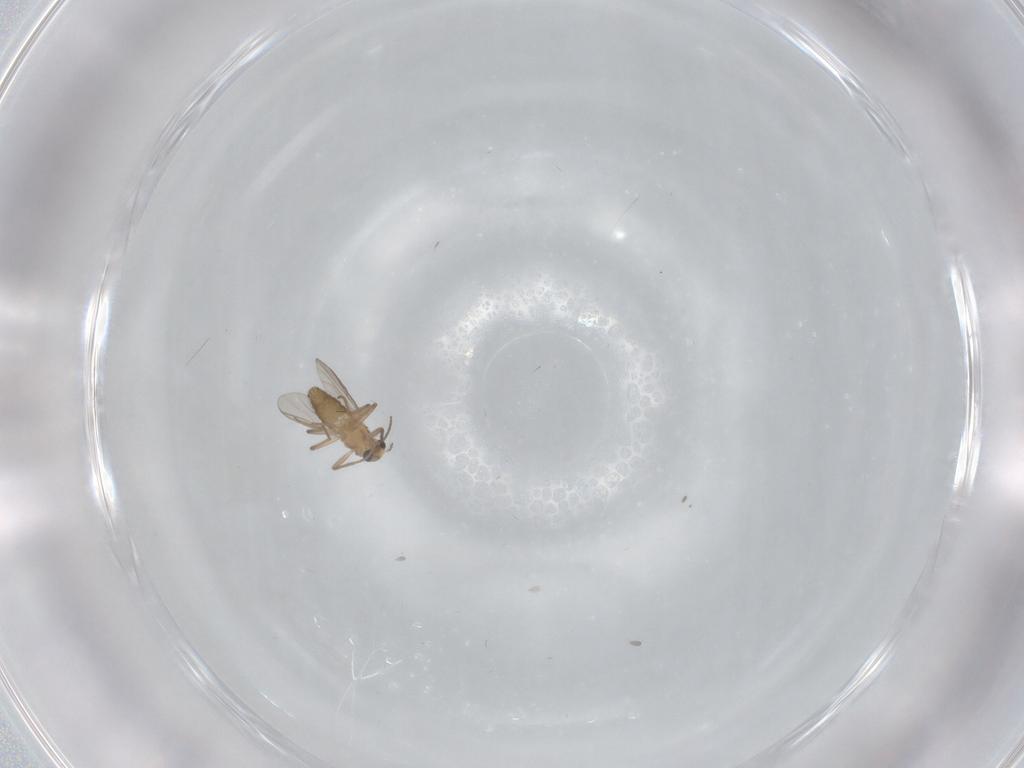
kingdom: Animalia
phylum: Arthropoda
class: Insecta
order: Diptera
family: Chironomidae
